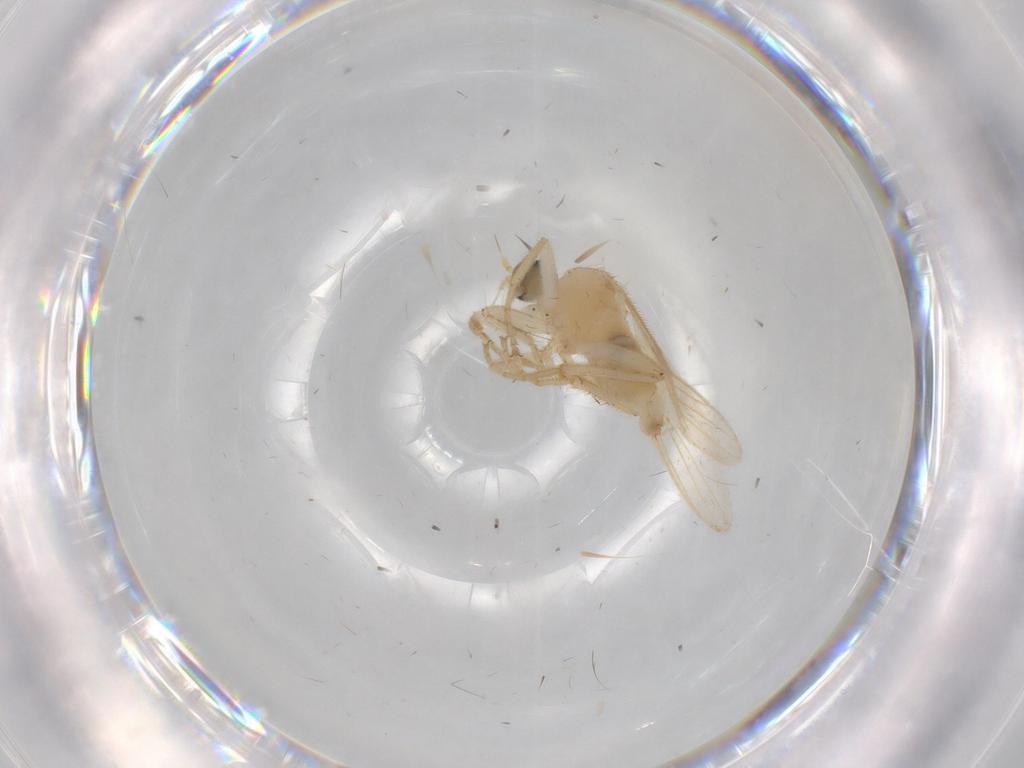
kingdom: Animalia
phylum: Arthropoda
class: Insecta
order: Diptera
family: Hybotidae
